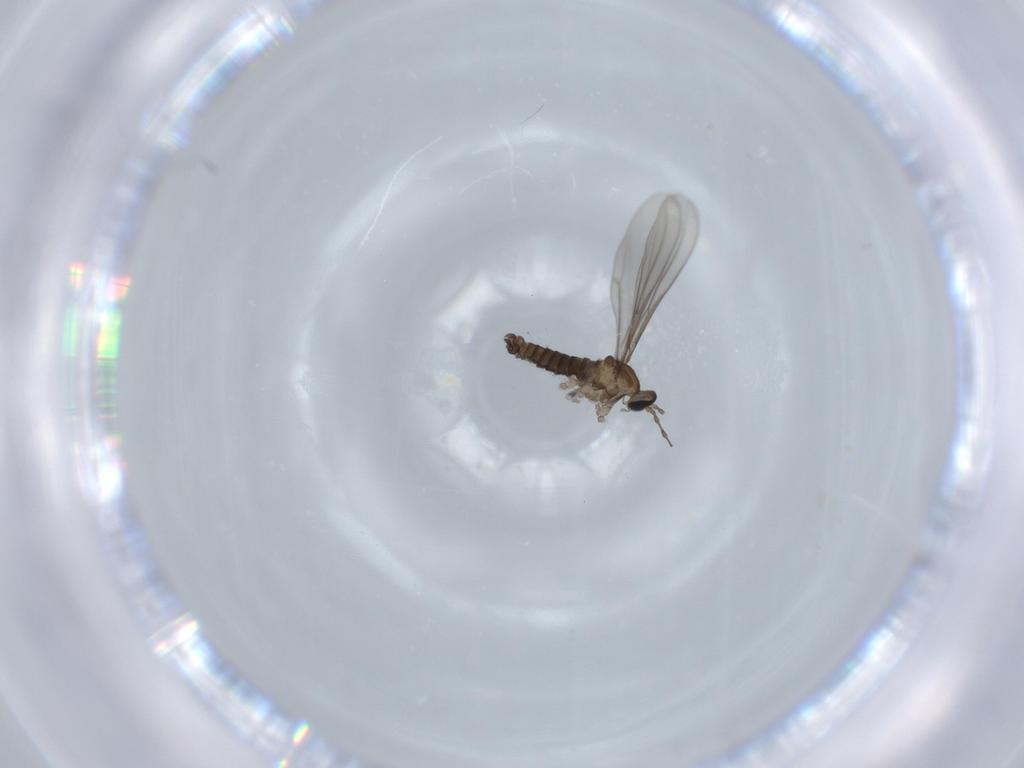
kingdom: Animalia
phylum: Arthropoda
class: Insecta
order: Diptera
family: Cecidomyiidae
